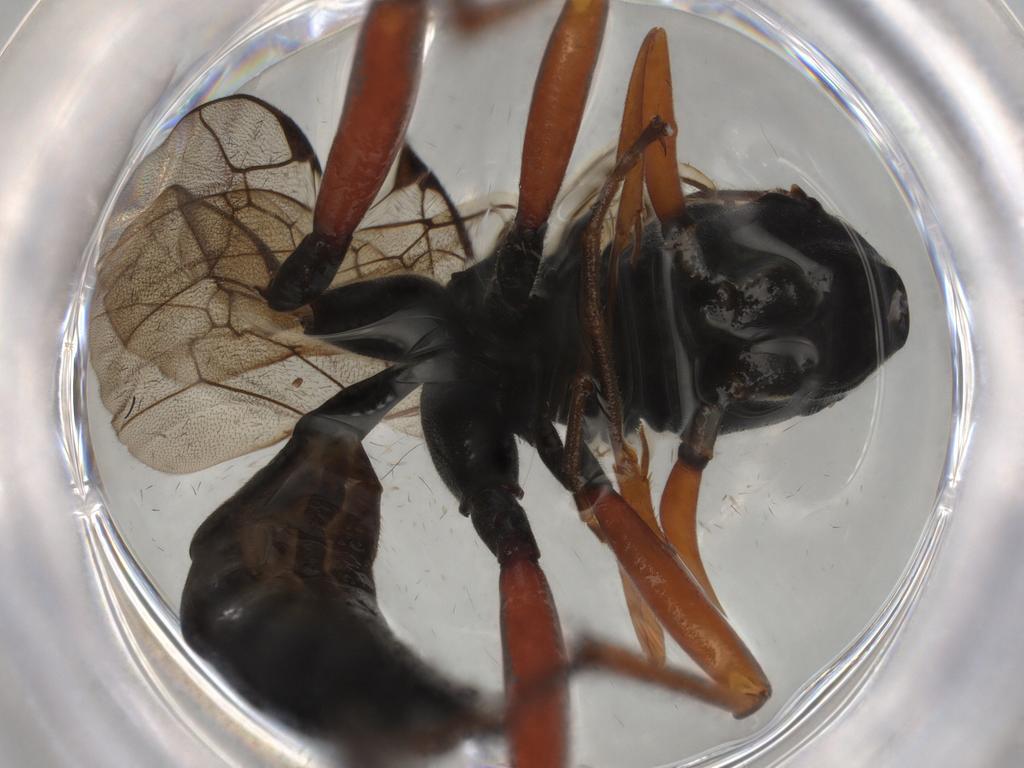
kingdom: Animalia
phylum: Arthropoda
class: Insecta
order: Hymenoptera
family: Ichneumonidae
